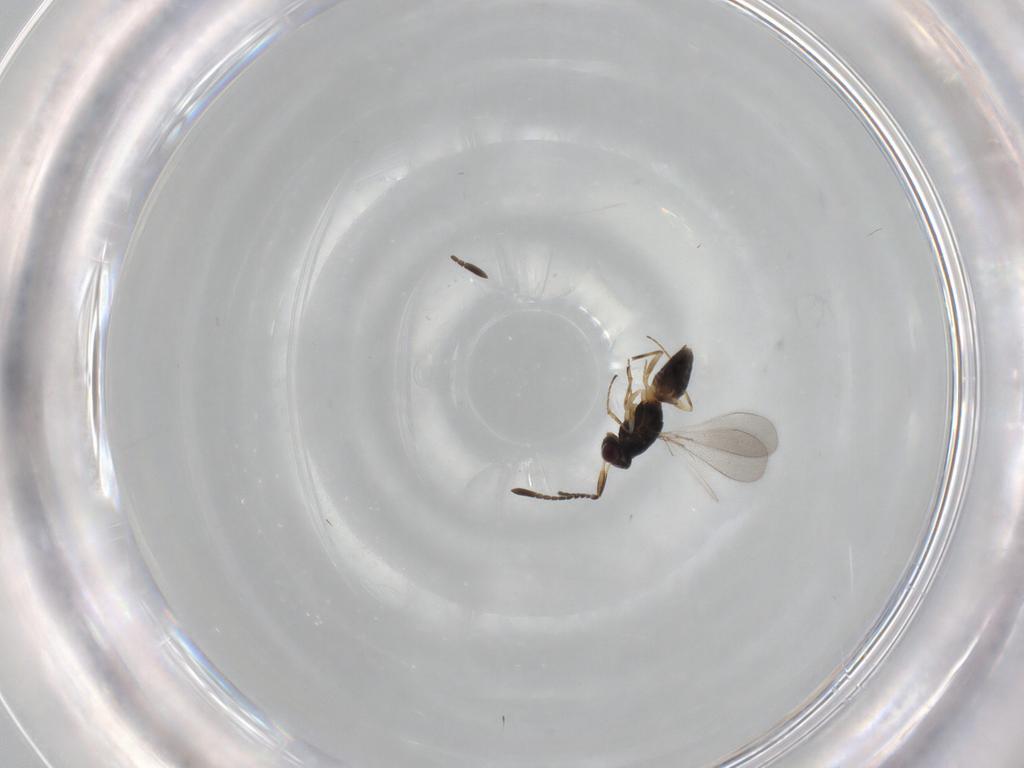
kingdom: Animalia
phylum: Arthropoda
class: Insecta
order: Hymenoptera
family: Mymaridae
